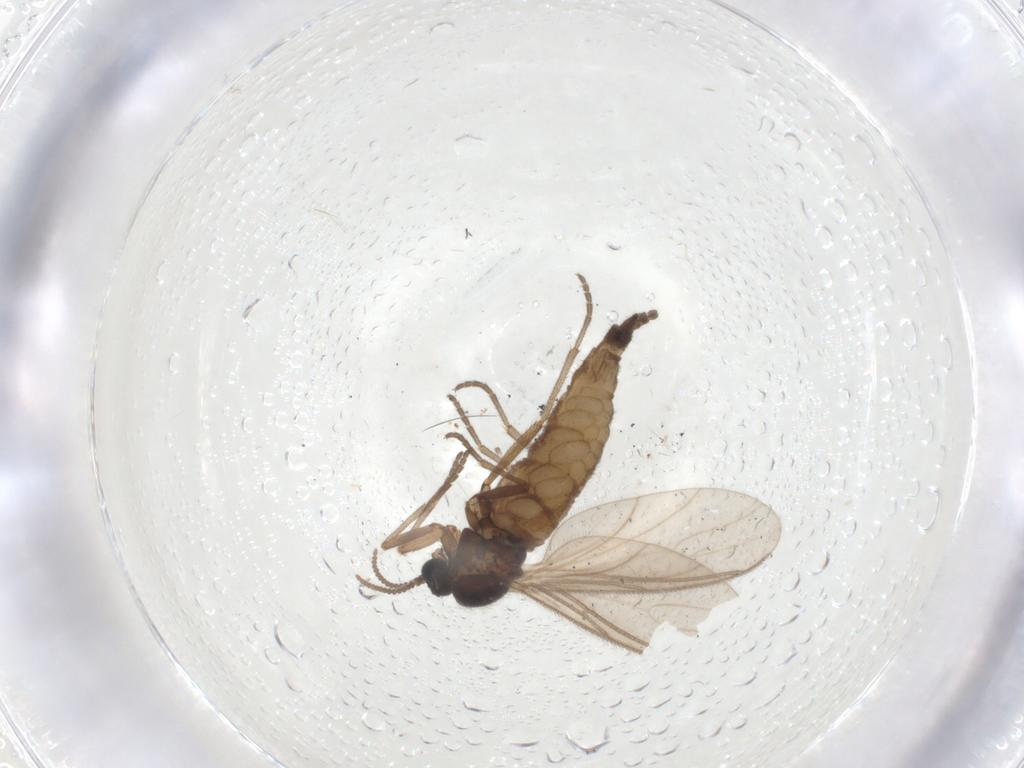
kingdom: Animalia
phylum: Arthropoda
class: Insecta
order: Diptera
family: Sciaridae
